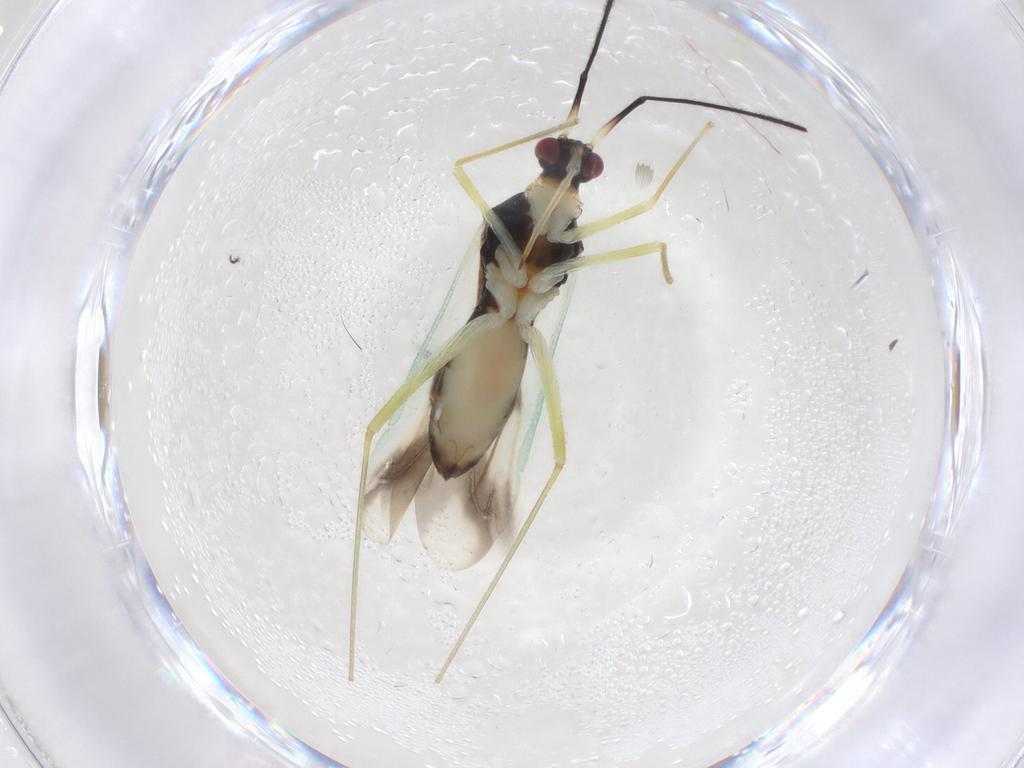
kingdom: Animalia
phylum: Arthropoda
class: Insecta
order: Hemiptera
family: Miridae
